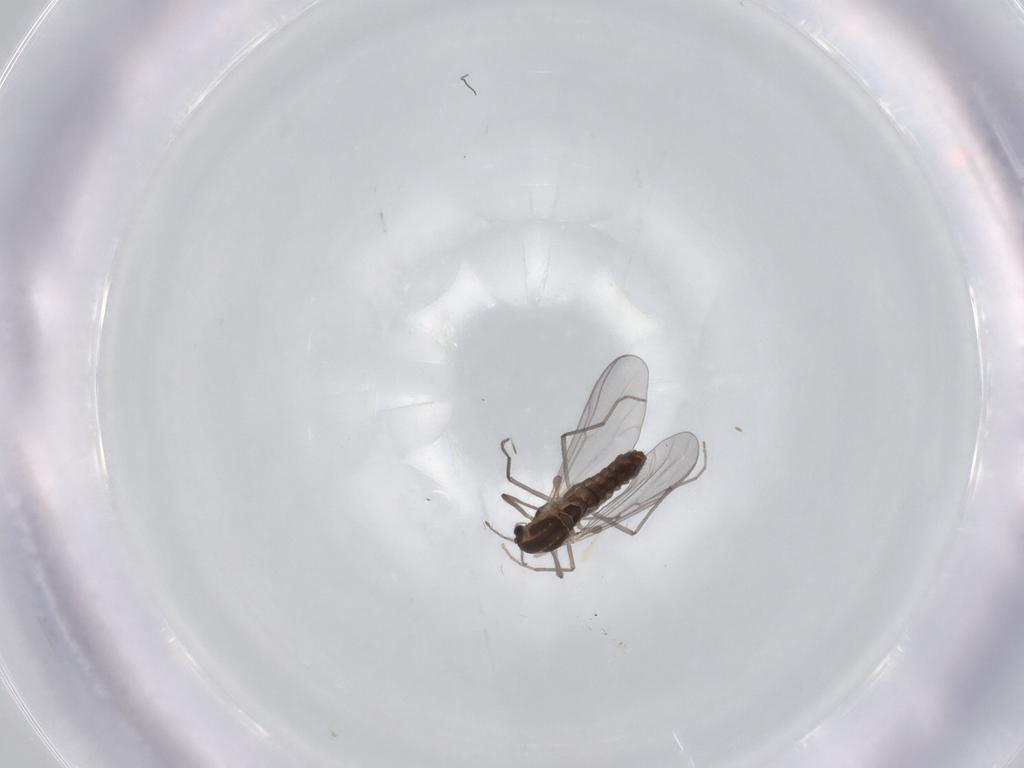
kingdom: Animalia
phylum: Arthropoda
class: Insecta
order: Diptera
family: Chironomidae
